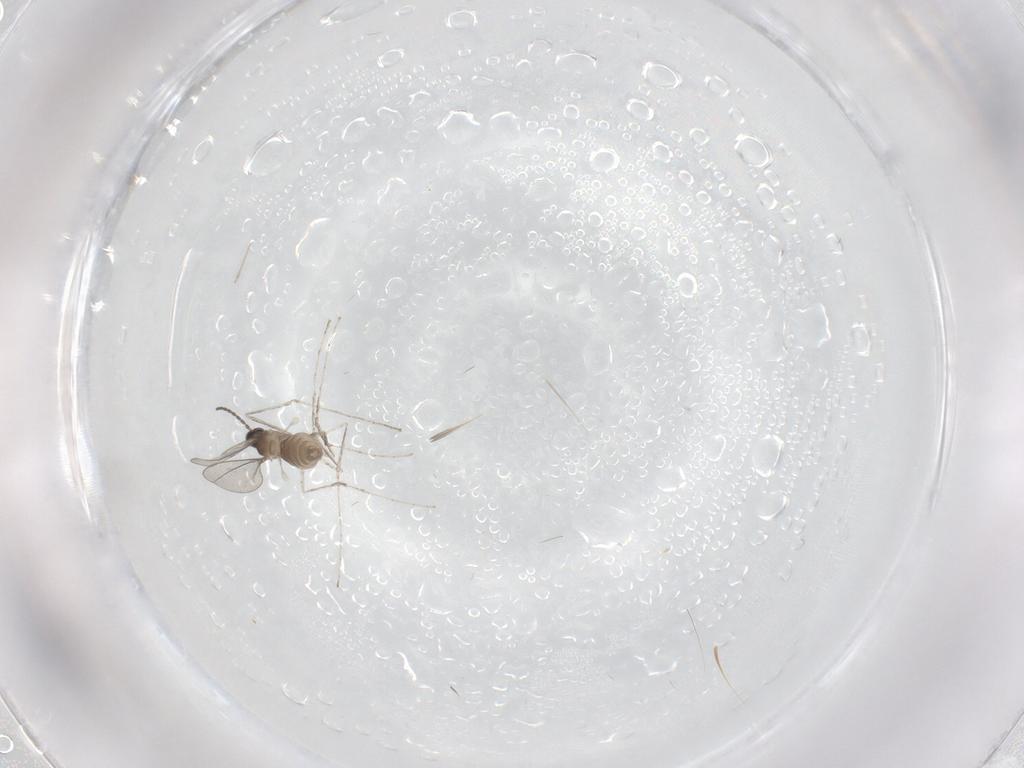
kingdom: Animalia
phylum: Arthropoda
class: Insecta
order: Diptera
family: Cecidomyiidae
